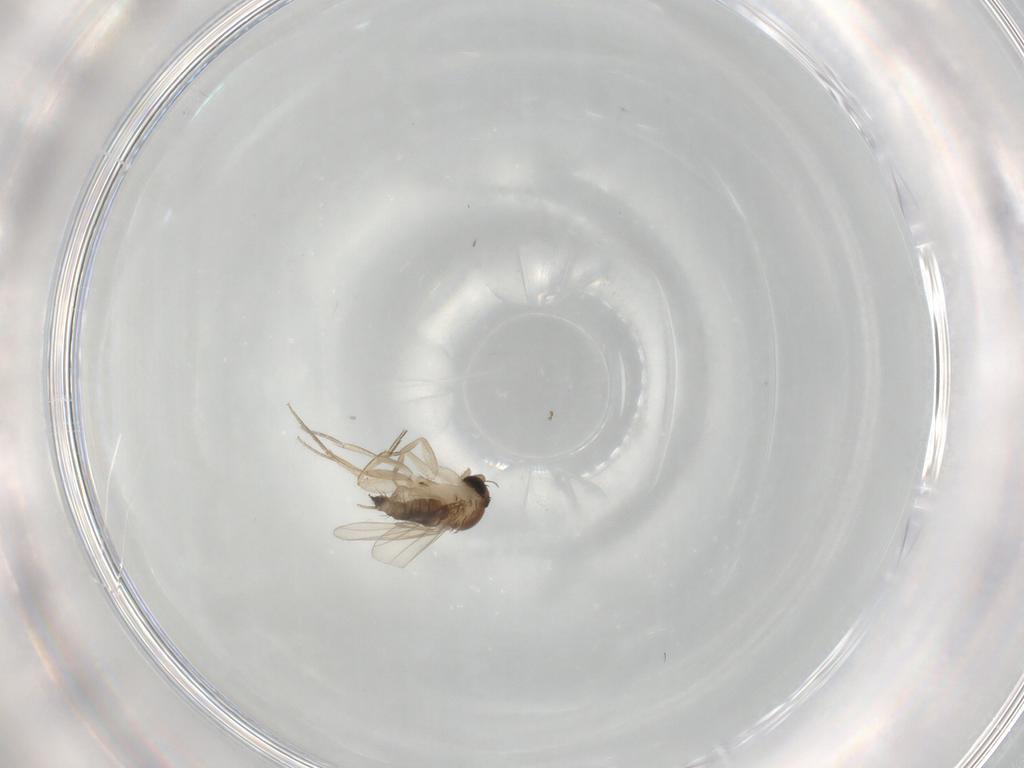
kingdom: Animalia
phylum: Arthropoda
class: Insecta
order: Diptera
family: Phoridae
